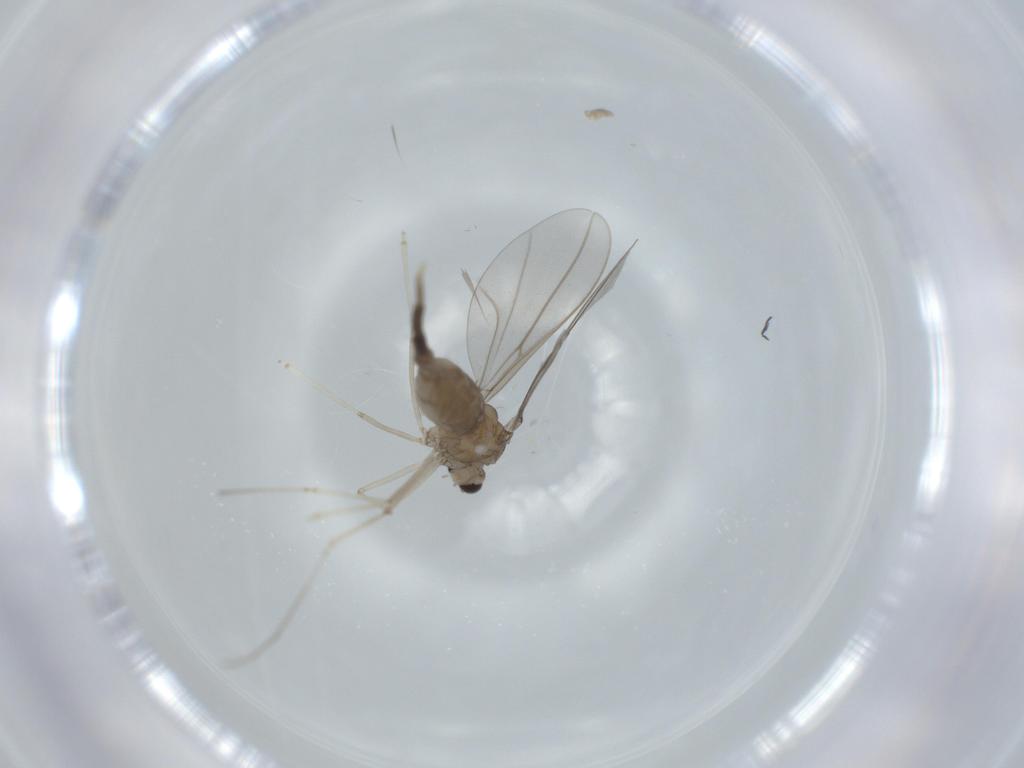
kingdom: Animalia
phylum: Arthropoda
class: Insecta
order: Diptera
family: Cecidomyiidae
